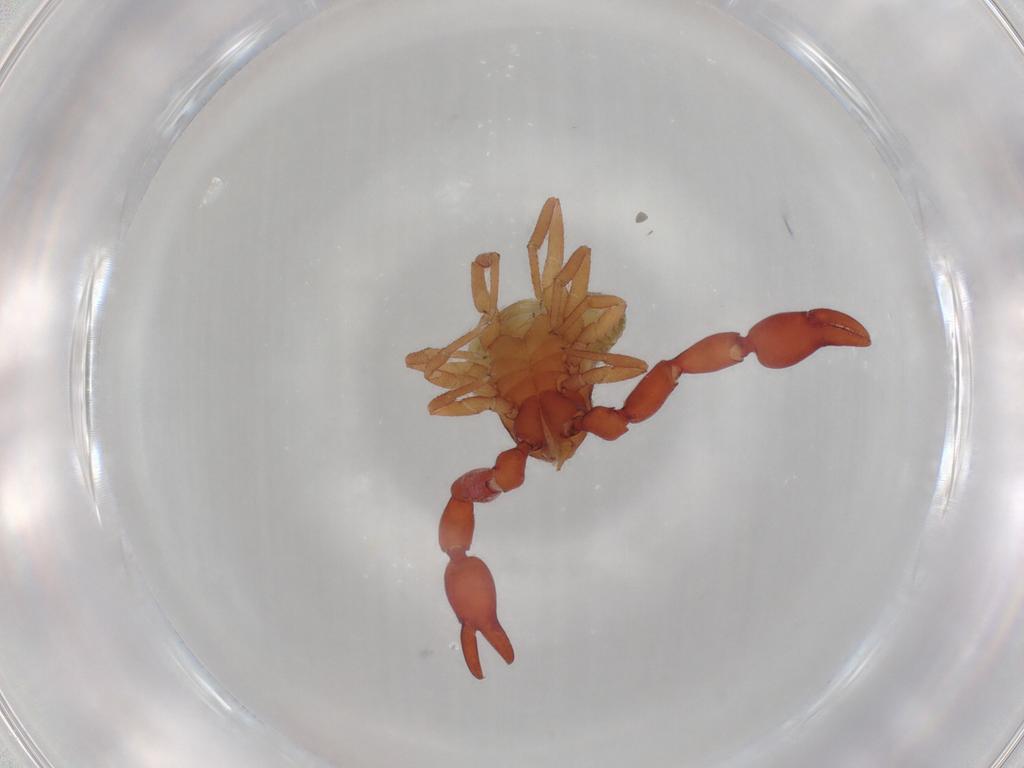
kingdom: Animalia
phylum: Arthropoda
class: Arachnida
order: Pseudoscorpiones
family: Chernetidae
